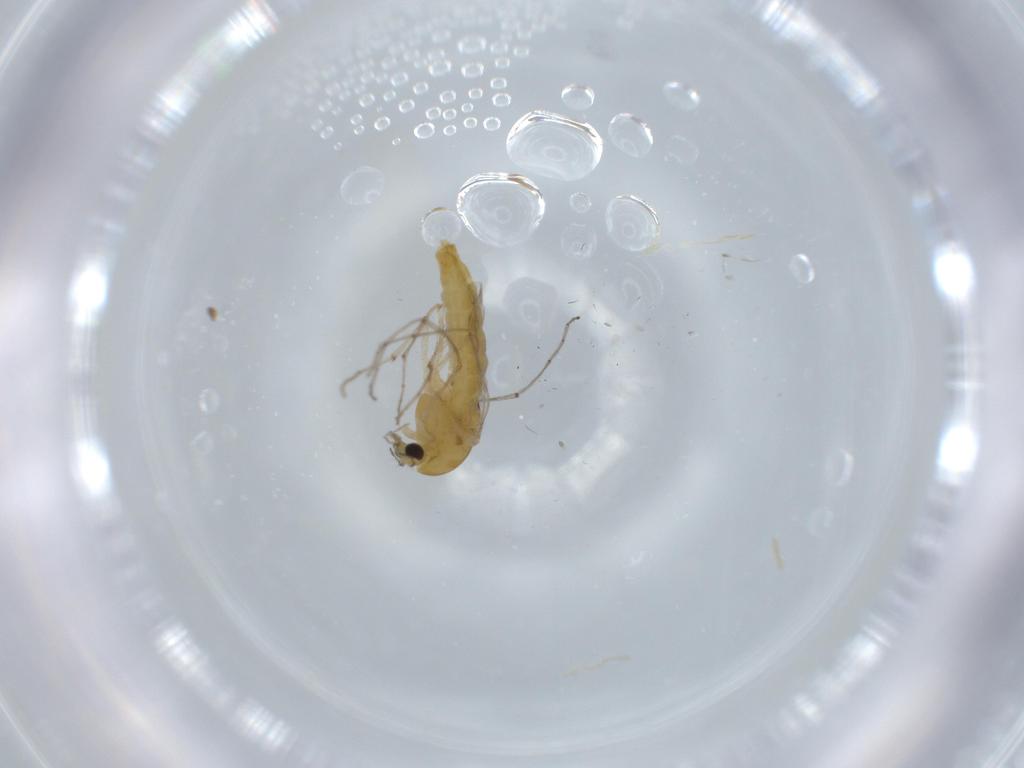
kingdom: Animalia
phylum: Arthropoda
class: Insecta
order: Diptera
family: Chironomidae
